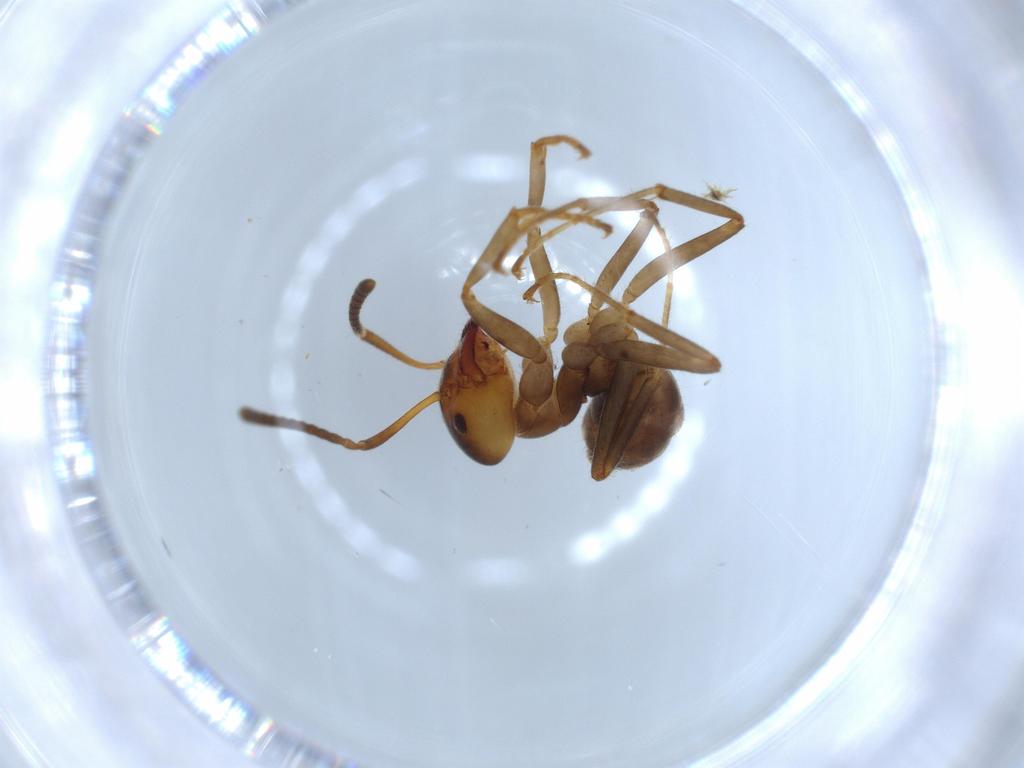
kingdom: Animalia
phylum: Arthropoda
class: Insecta
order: Hymenoptera
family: Formicidae
